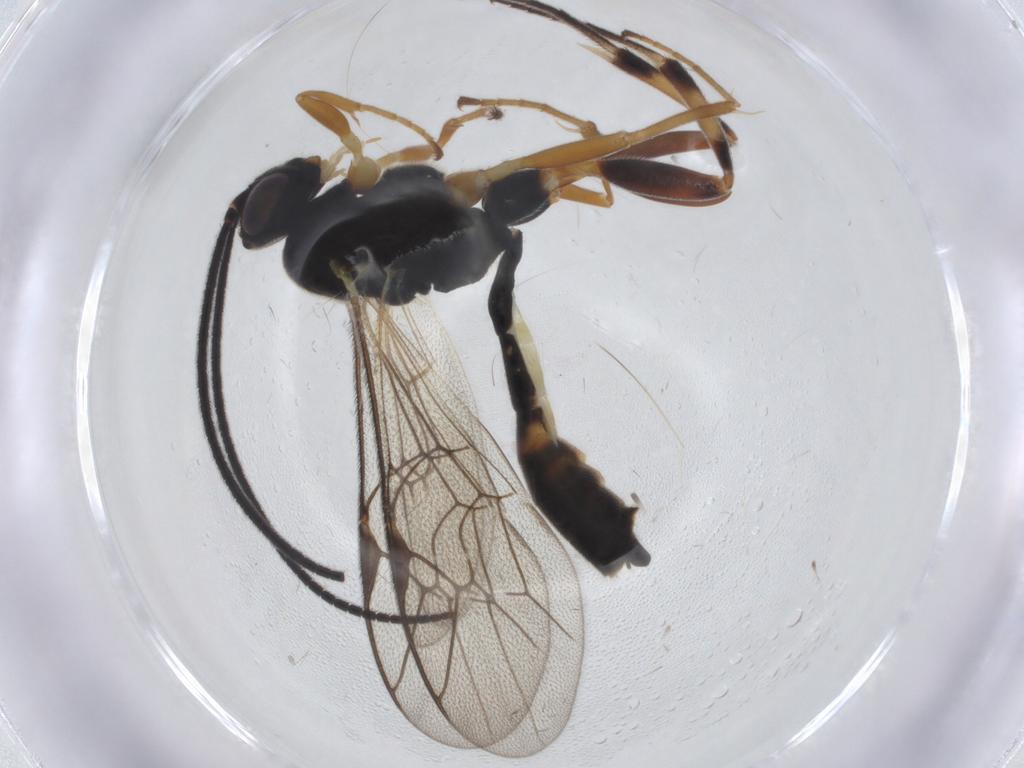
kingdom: Animalia
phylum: Arthropoda
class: Insecta
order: Hymenoptera
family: Ichneumonidae
